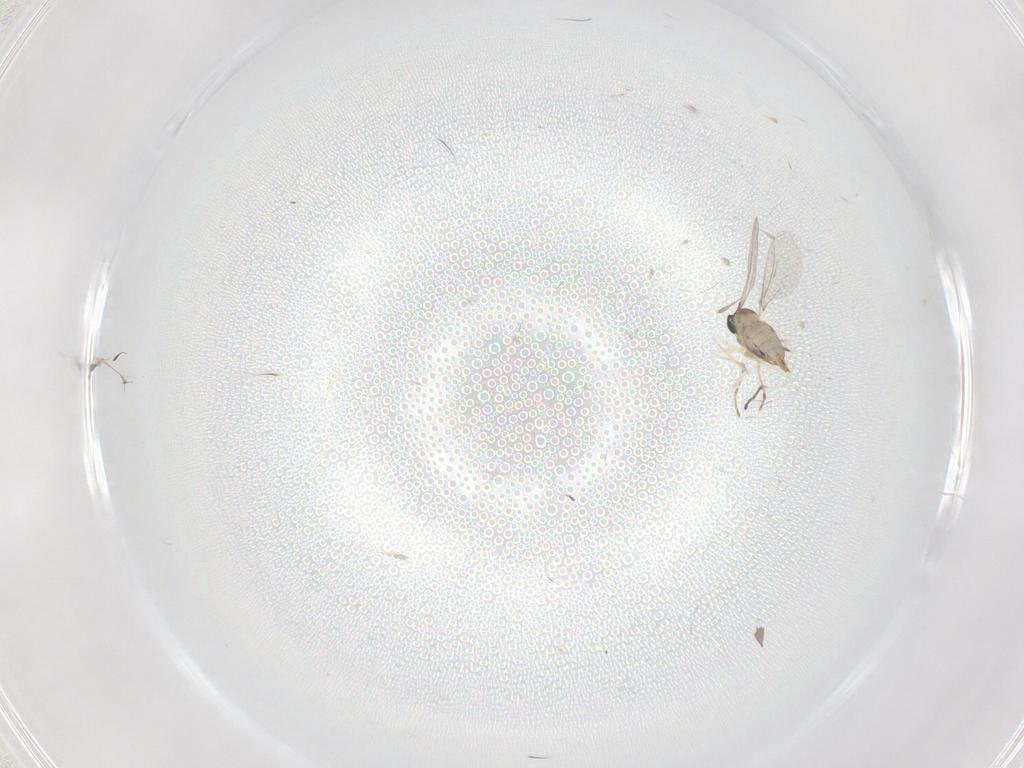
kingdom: Animalia
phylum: Arthropoda
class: Insecta
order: Diptera
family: Cecidomyiidae
